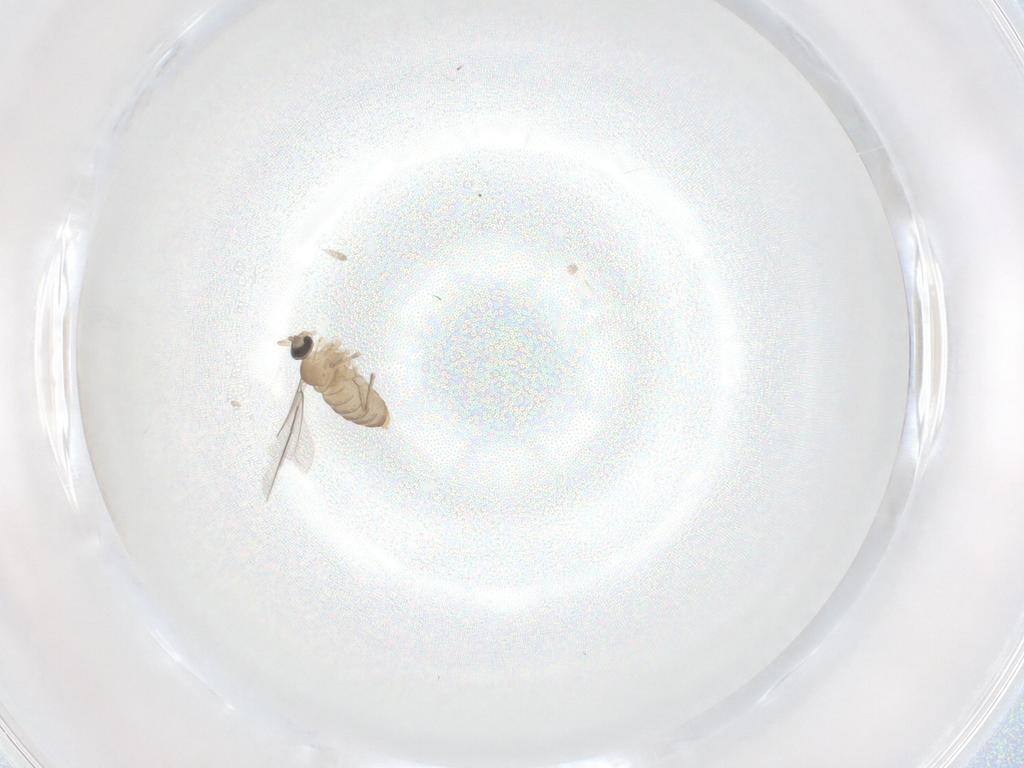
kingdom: Animalia
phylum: Arthropoda
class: Insecta
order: Diptera
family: Cecidomyiidae
